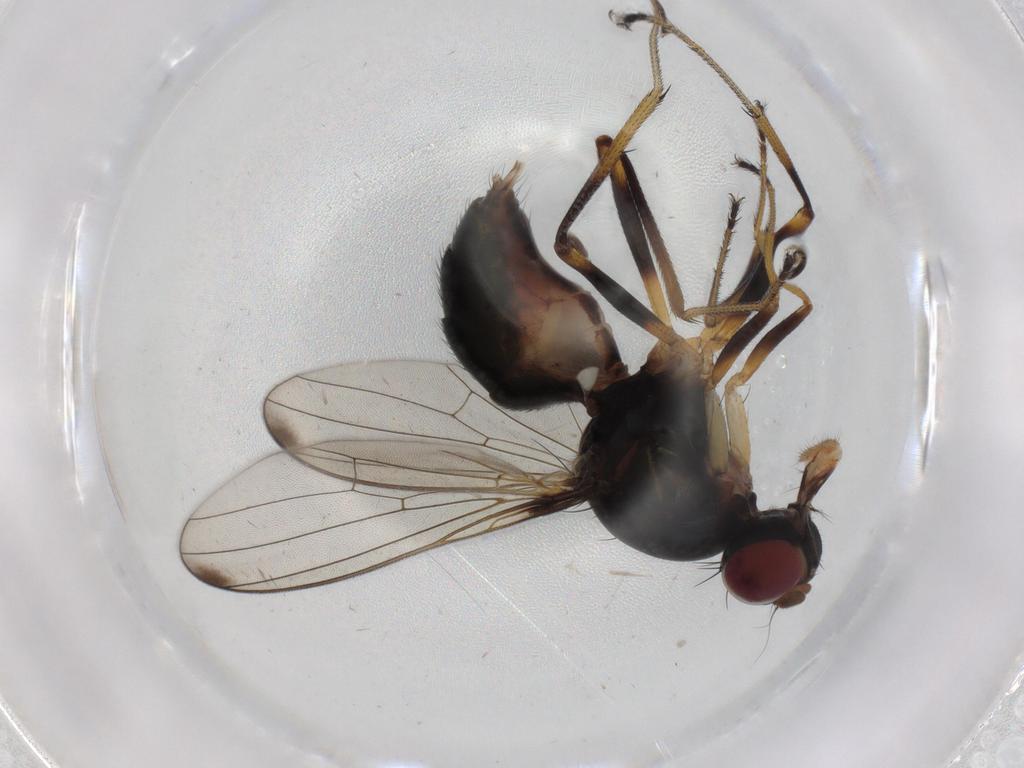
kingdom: Animalia
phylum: Arthropoda
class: Insecta
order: Diptera
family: Sepsidae
